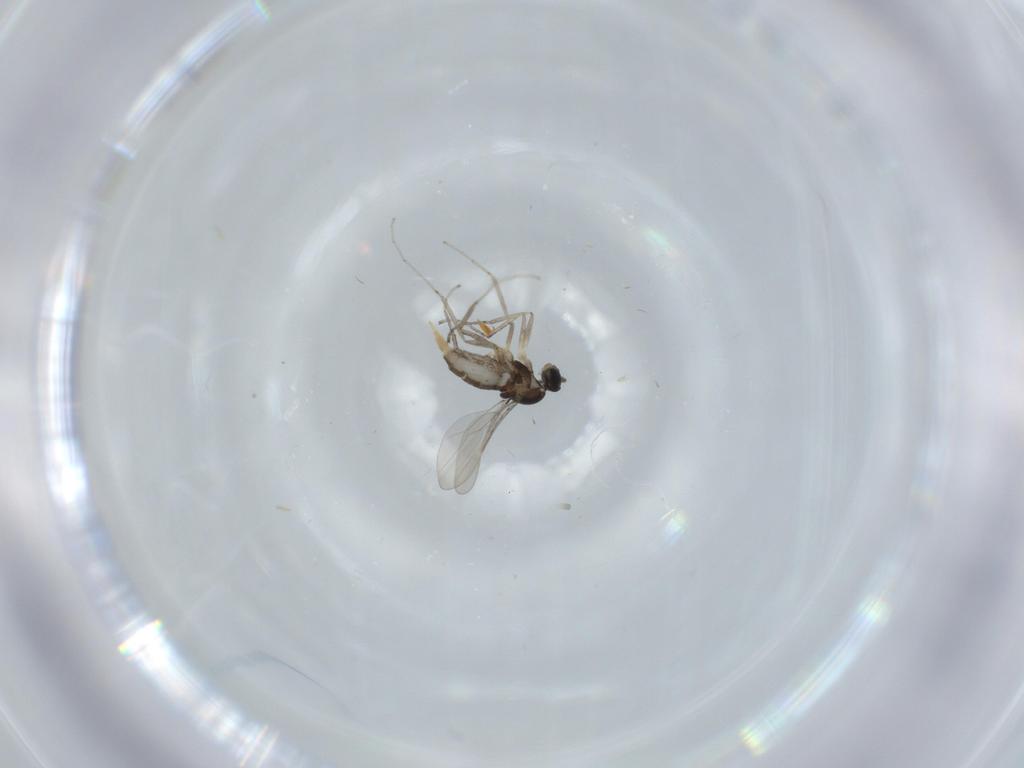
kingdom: Animalia
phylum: Arthropoda
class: Insecta
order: Diptera
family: Cecidomyiidae
